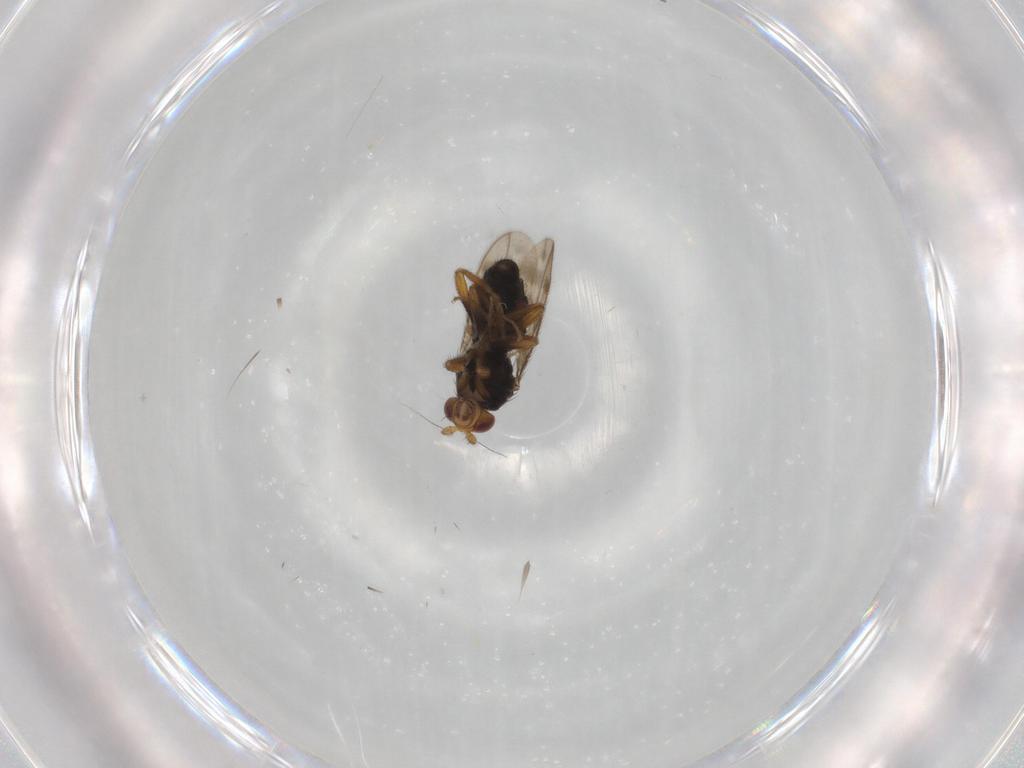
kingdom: Animalia
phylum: Arthropoda
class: Insecta
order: Diptera
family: Sphaeroceridae
